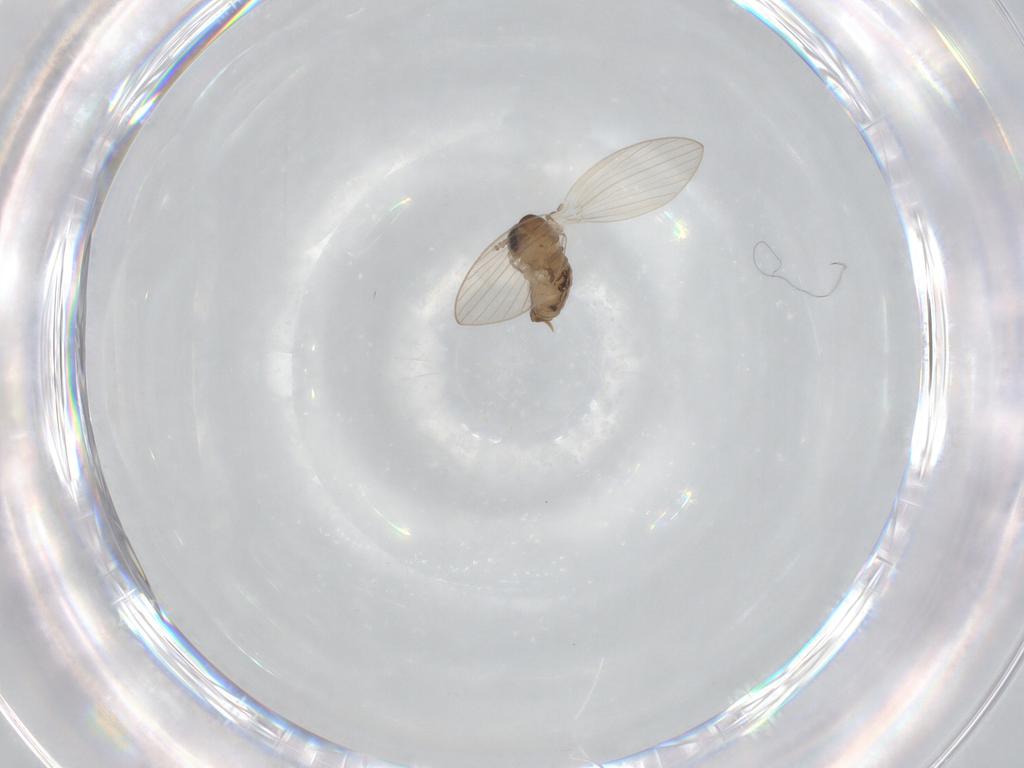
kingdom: Animalia
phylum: Arthropoda
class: Insecta
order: Diptera
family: Psychodidae
